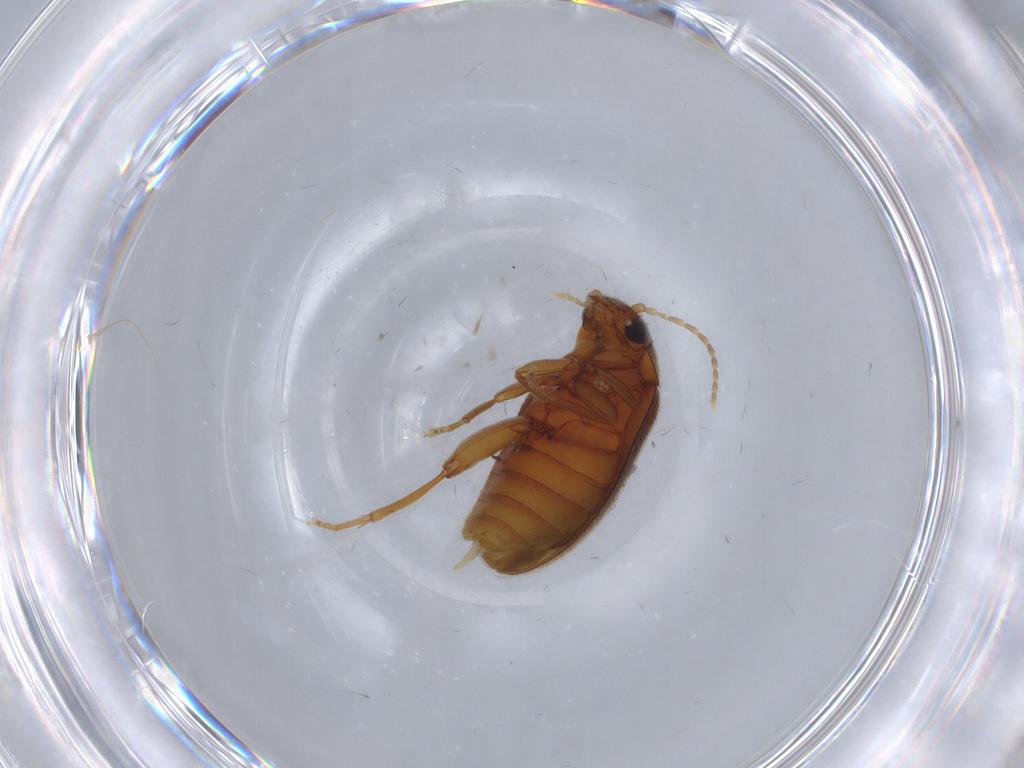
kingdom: Animalia
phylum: Arthropoda
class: Insecta
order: Coleoptera
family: Scirtidae
